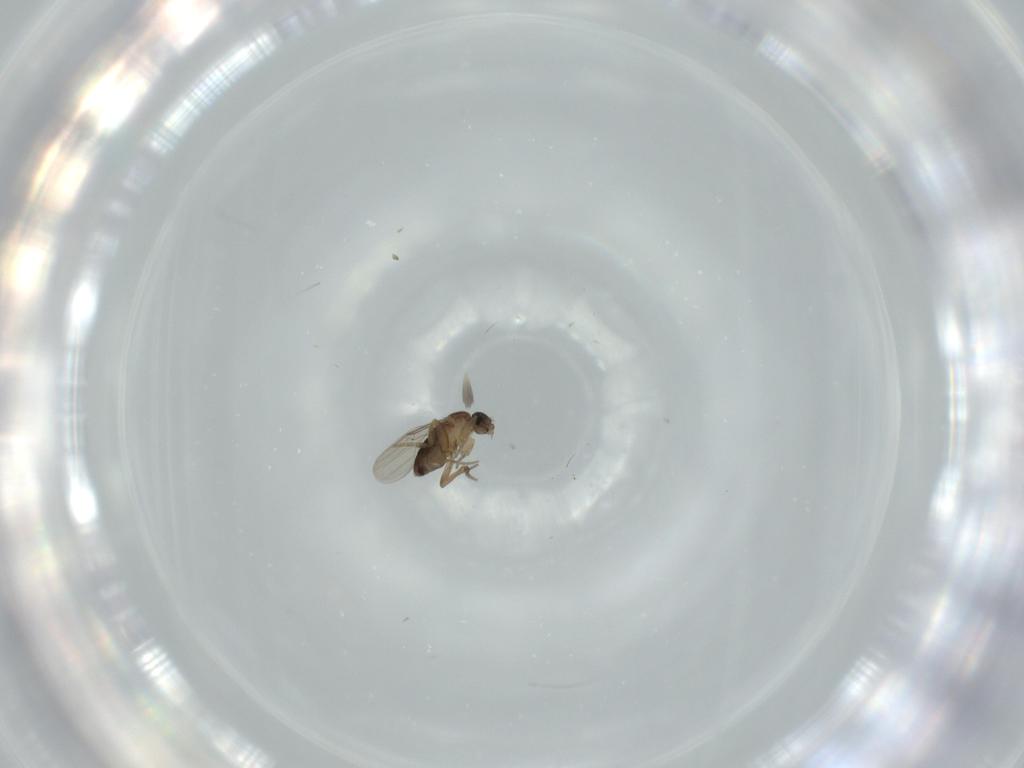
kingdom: Animalia
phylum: Arthropoda
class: Insecta
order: Diptera
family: Phoridae
